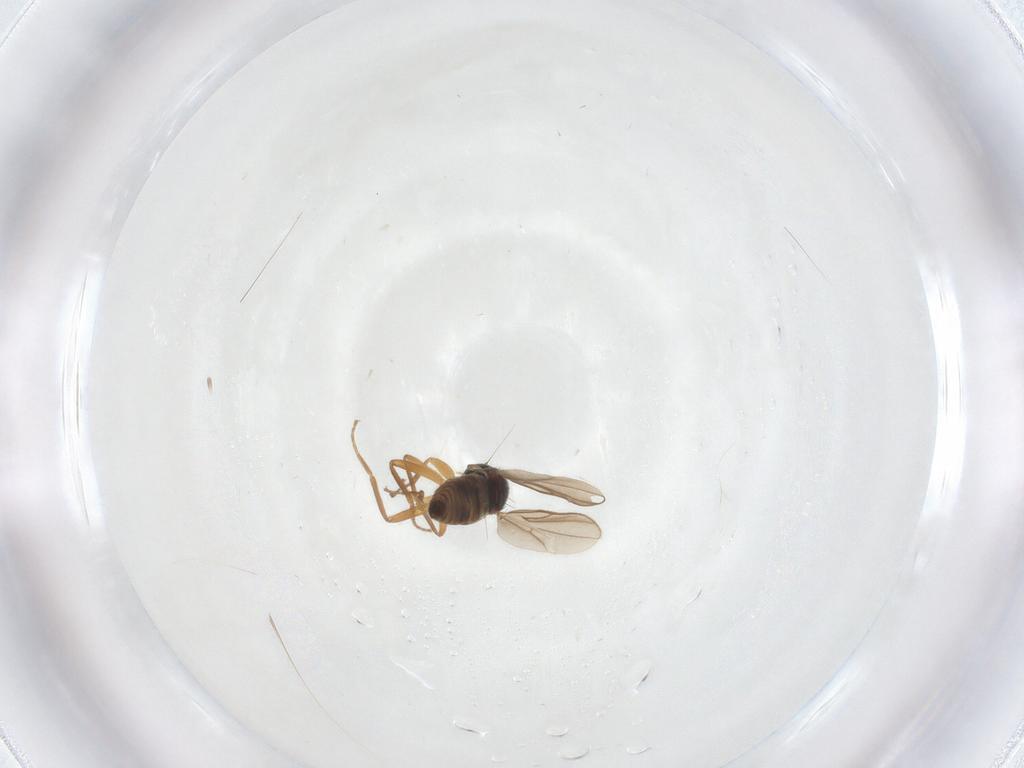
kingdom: Animalia
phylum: Arthropoda
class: Insecta
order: Diptera
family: Hybotidae
